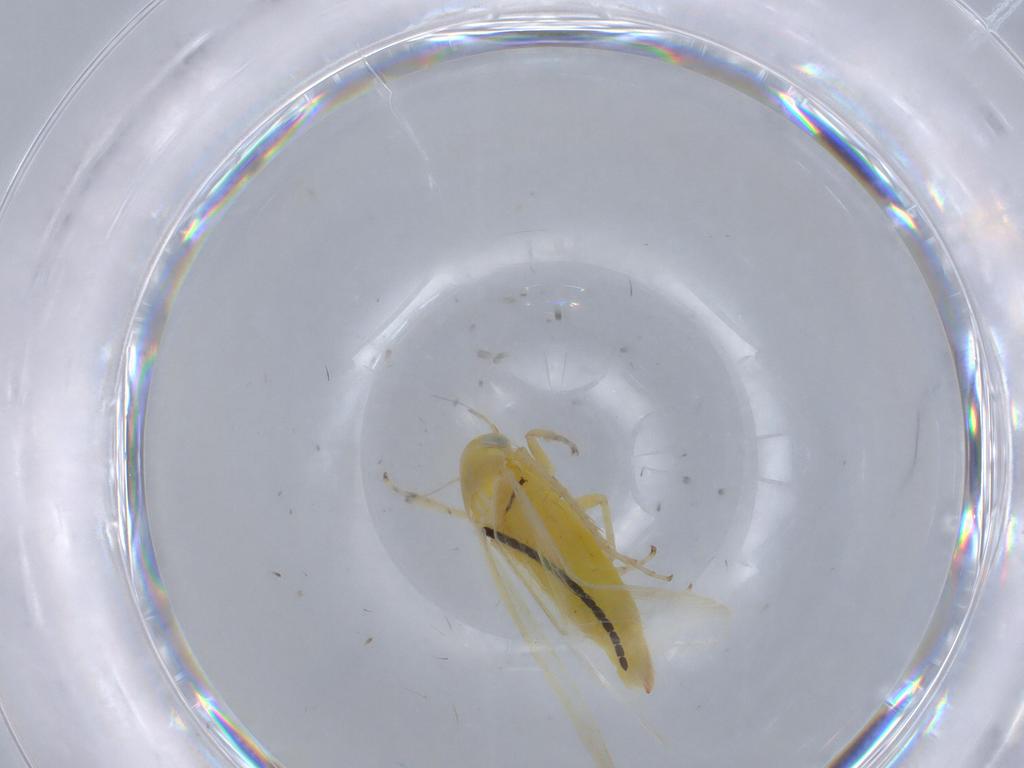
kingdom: Animalia
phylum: Arthropoda
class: Insecta
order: Hemiptera
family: Cicadellidae
